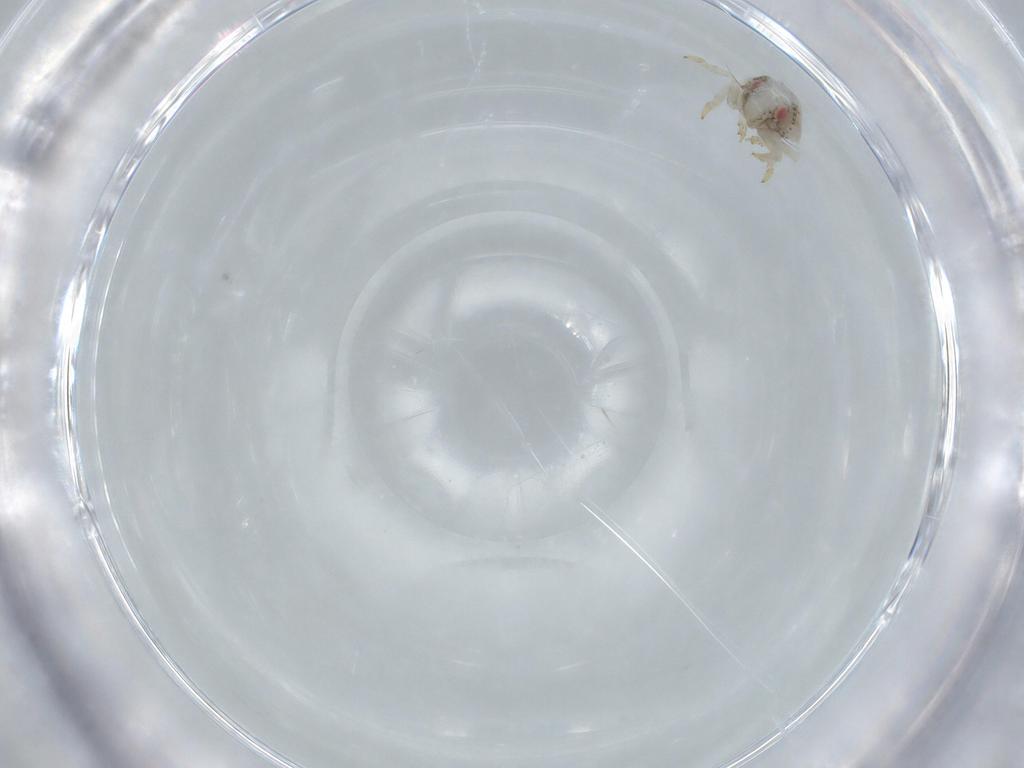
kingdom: Animalia
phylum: Arthropoda
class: Insecta
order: Hemiptera
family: Acanaloniidae
